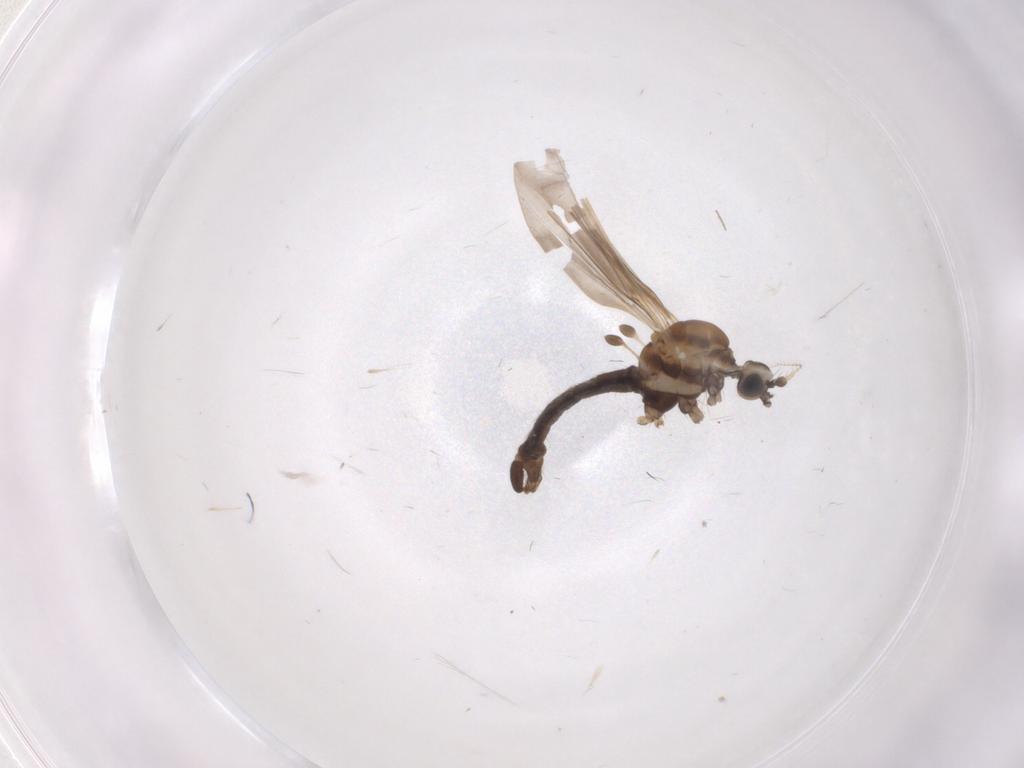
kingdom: Animalia
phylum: Arthropoda
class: Insecta
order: Diptera
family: Limoniidae
